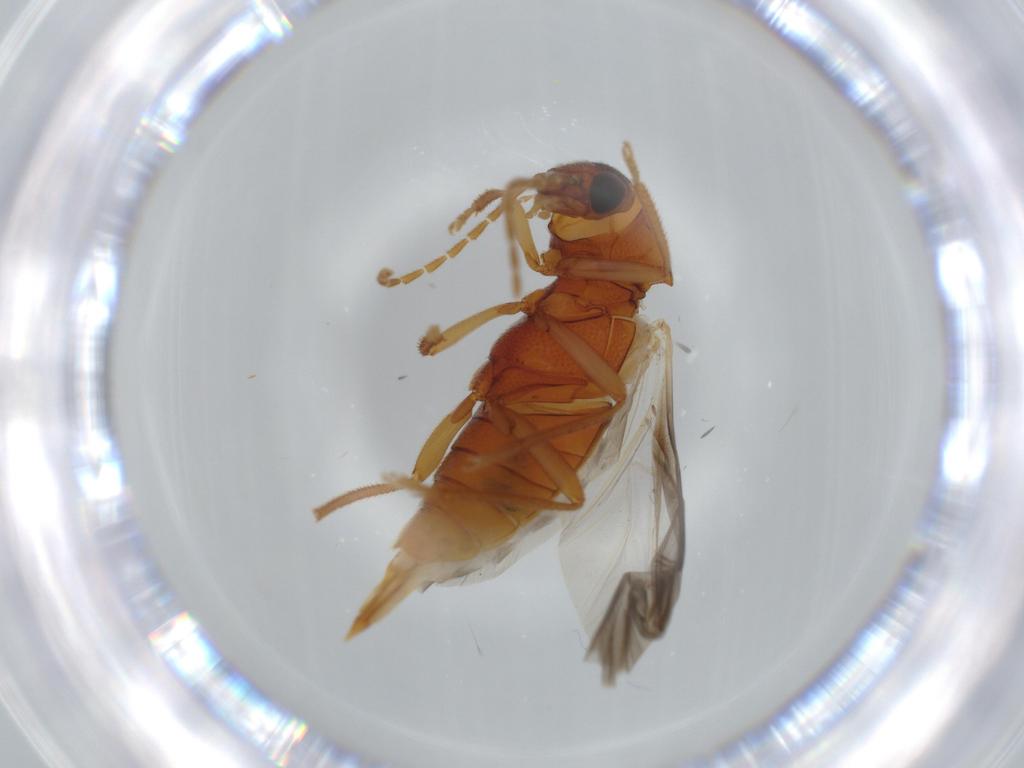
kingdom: Animalia
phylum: Arthropoda
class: Insecta
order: Coleoptera
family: Ptilodactylidae
